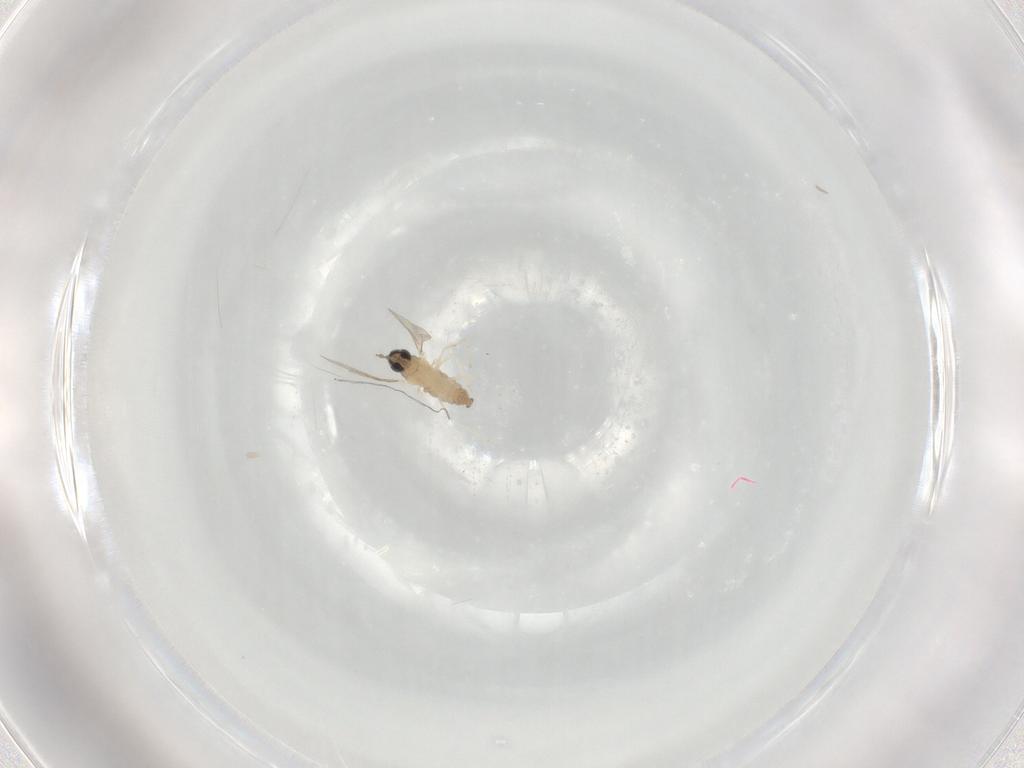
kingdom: Animalia
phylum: Arthropoda
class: Insecta
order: Diptera
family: Cecidomyiidae
